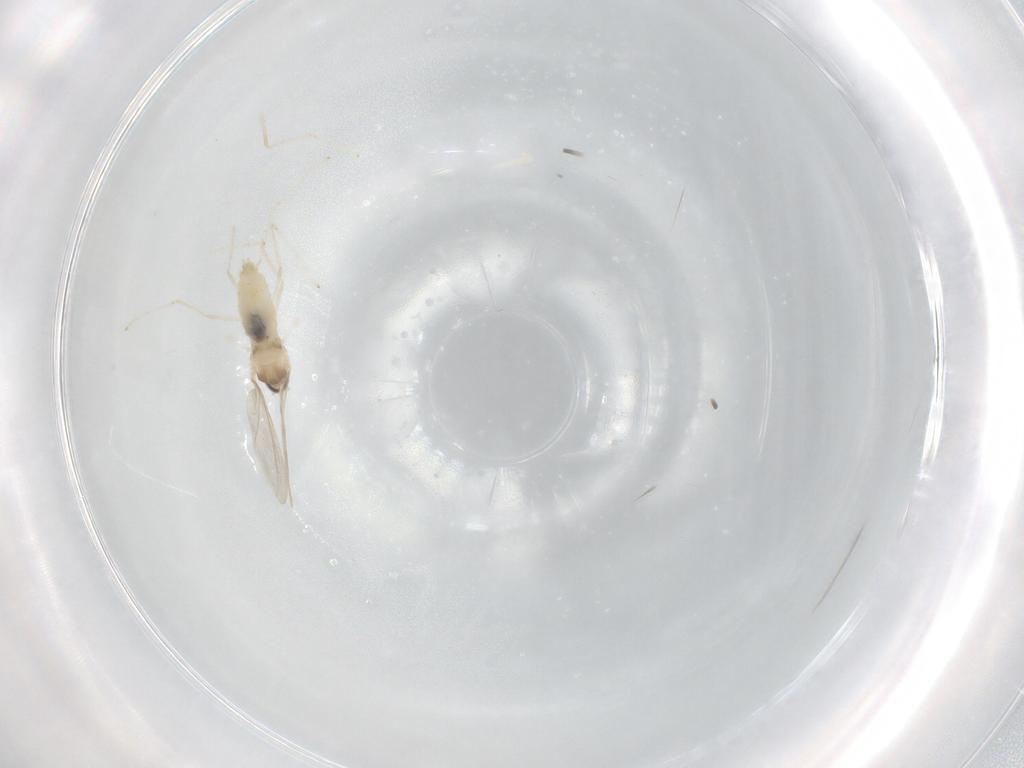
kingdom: Animalia
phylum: Arthropoda
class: Insecta
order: Diptera
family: Cecidomyiidae
